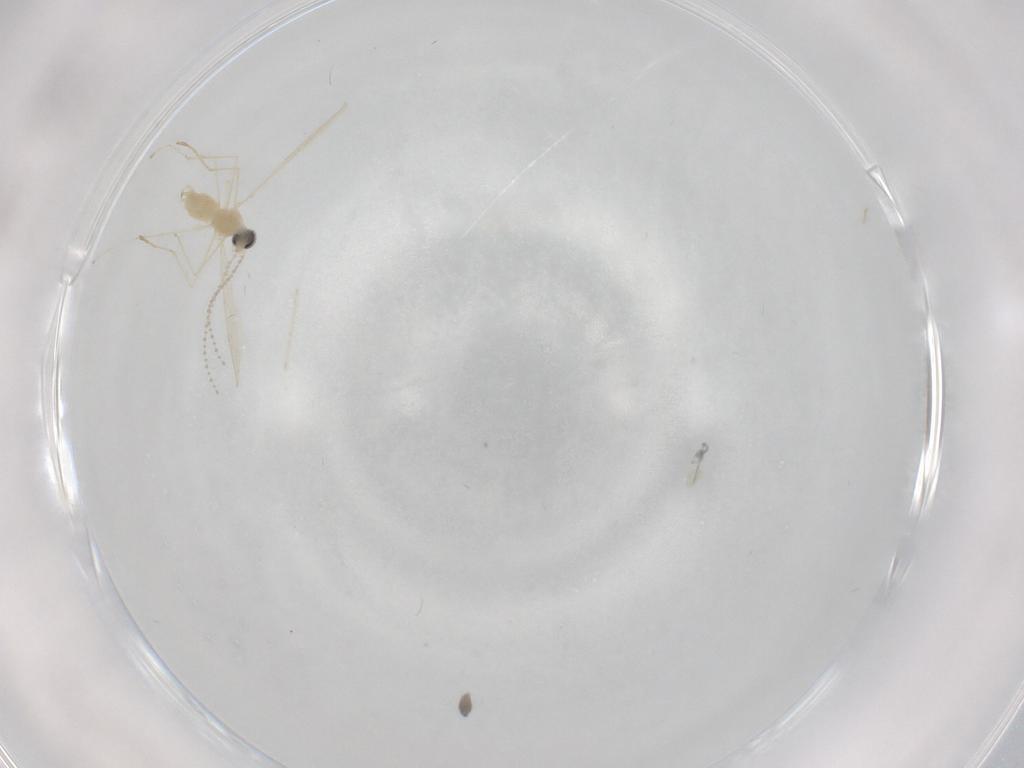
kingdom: Animalia
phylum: Arthropoda
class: Insecta
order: Diptera
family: Cecidomyiidae
